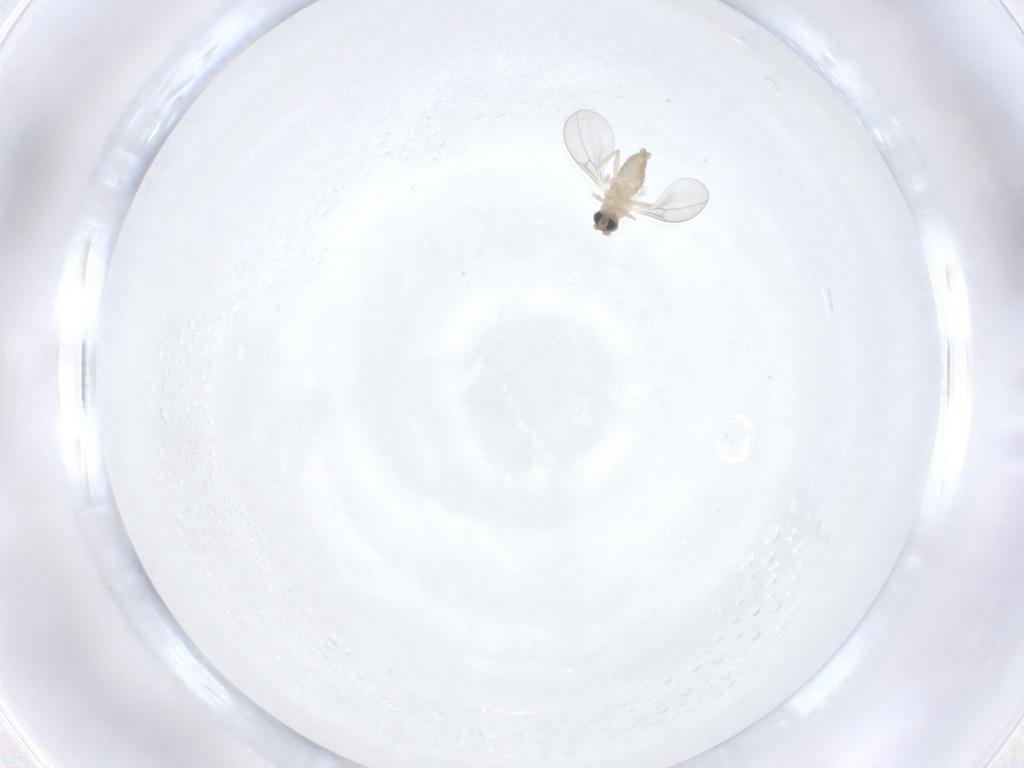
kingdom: Animalia
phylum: Arthropoda
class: Insecta
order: Diptera
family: Cecidomyiidae
